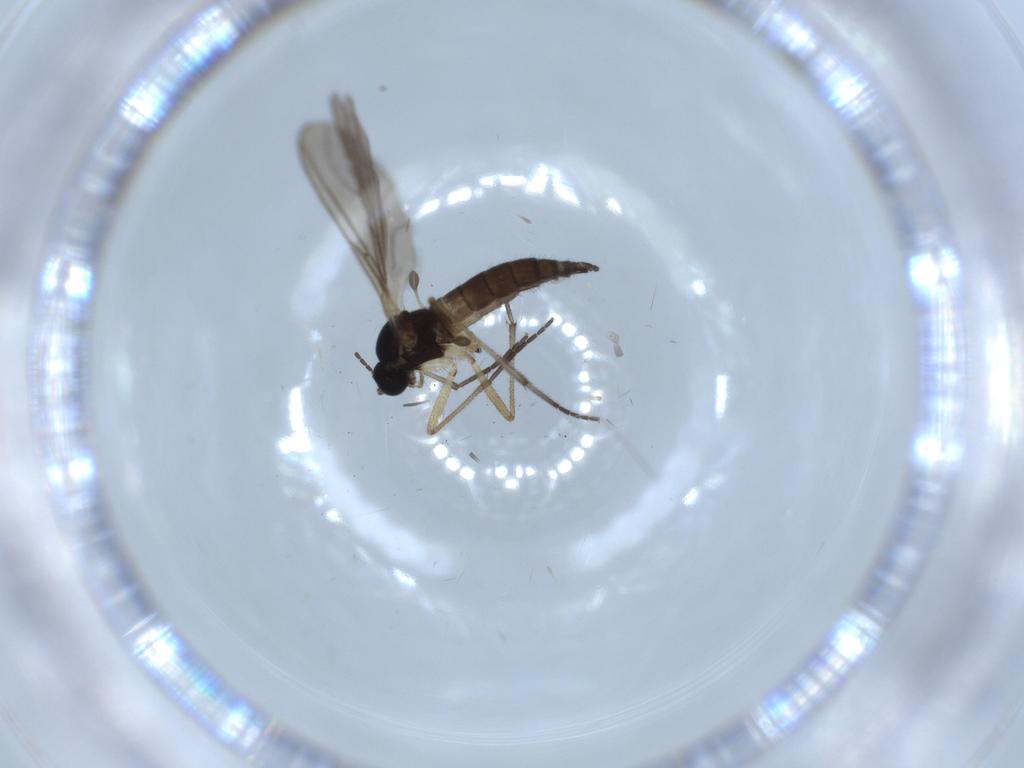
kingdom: Animalia
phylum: Arthropoda
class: Insecta
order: Diptera
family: Sciaridae
